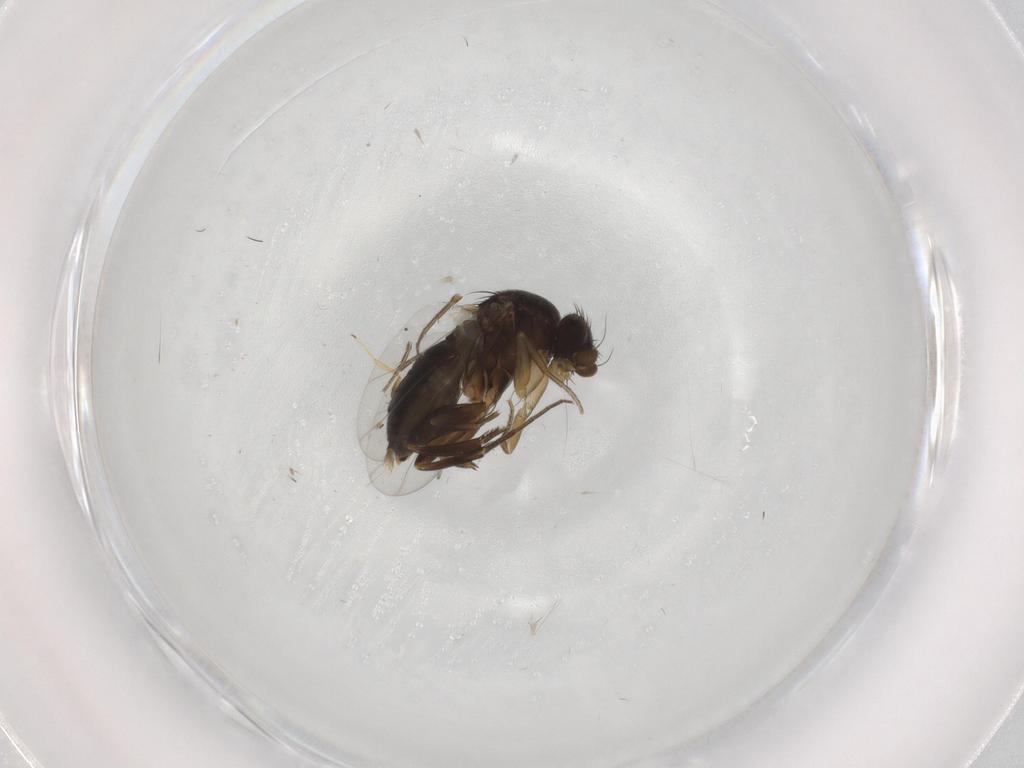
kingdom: Animalia
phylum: Arthropoda
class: Insecta
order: Diptera
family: Phoridae
